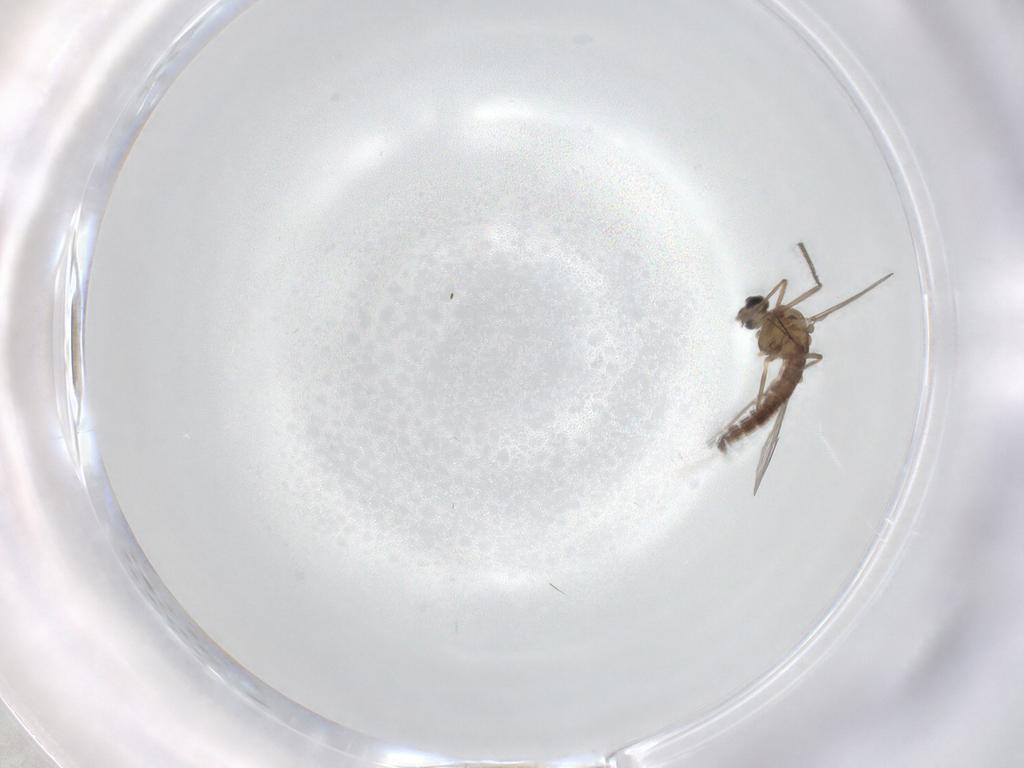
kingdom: Animalia
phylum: Arthropoda
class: Insecta
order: Diptera
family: Chironomidae
